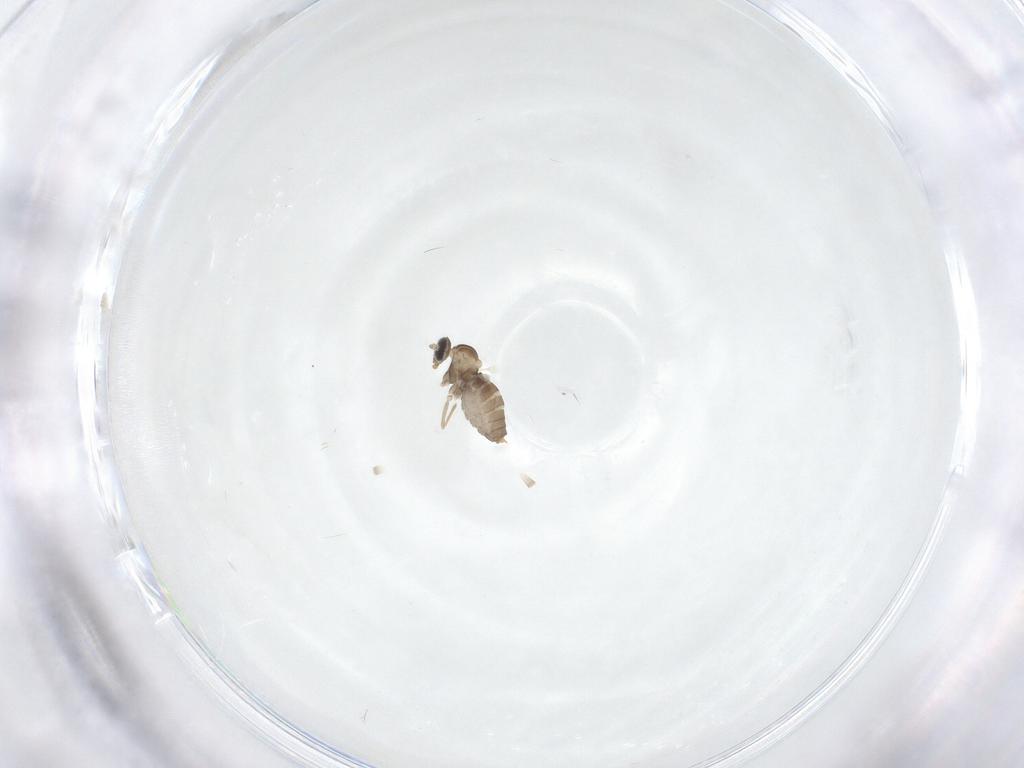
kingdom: Animalia
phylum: Arthropoda
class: Insecta
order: Diptera
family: Cecidomyiidae
